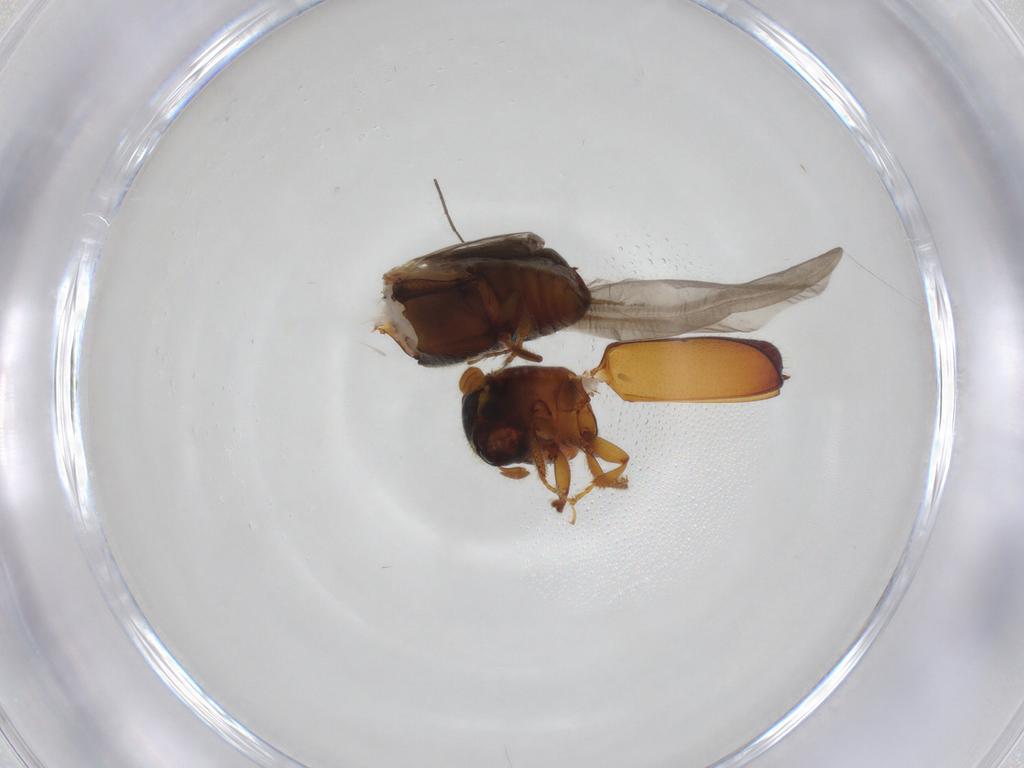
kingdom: Animalia
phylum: Arthropoda
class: Insecta
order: Coleoptera
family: Curculionidae
